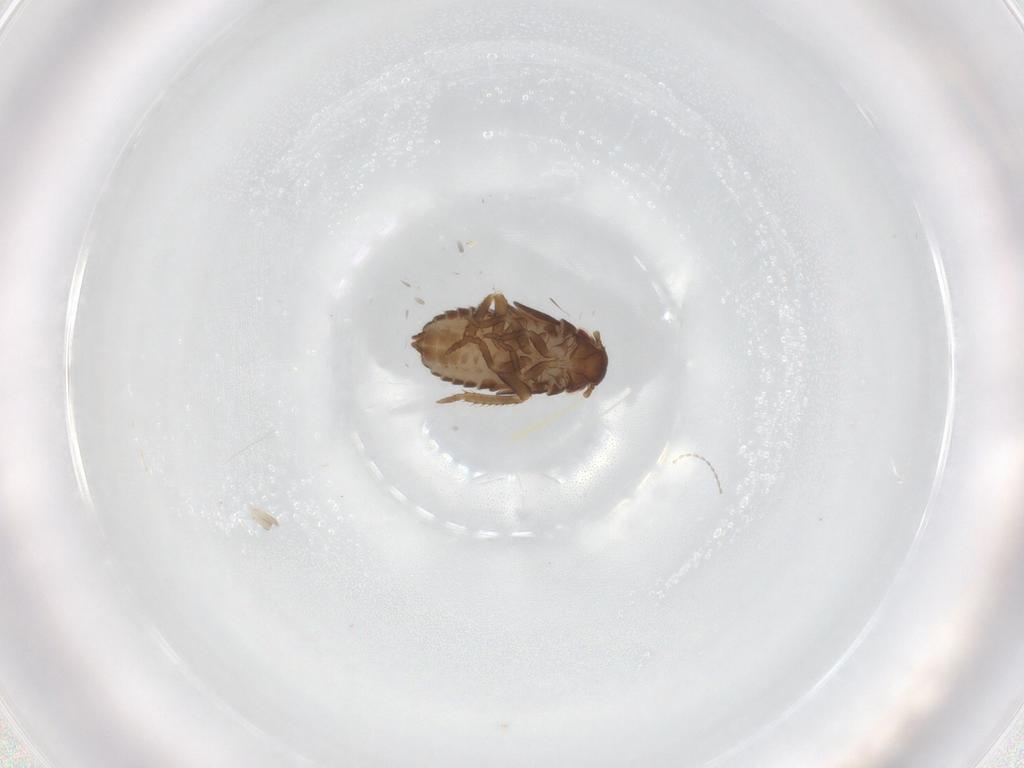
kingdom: Animalia
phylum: Arthropoda
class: Insecta
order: Hemiptera
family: Cicadellidae
